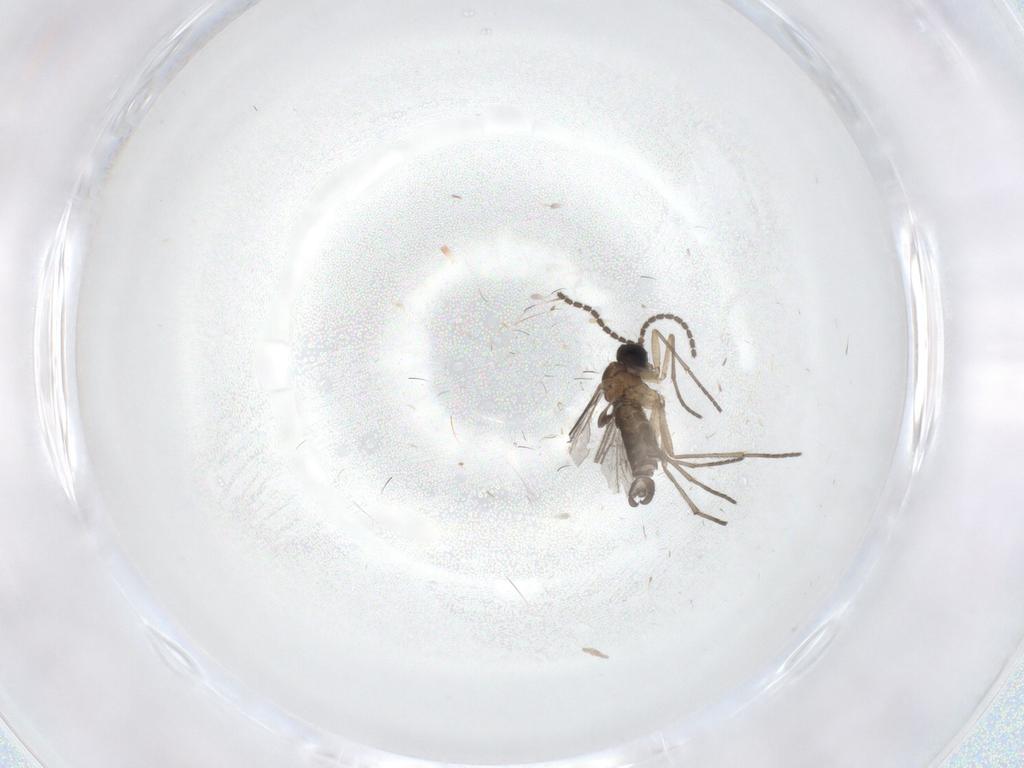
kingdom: Animalia
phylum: Arthropoda
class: Insecta
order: Diptera
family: Sciaridae
